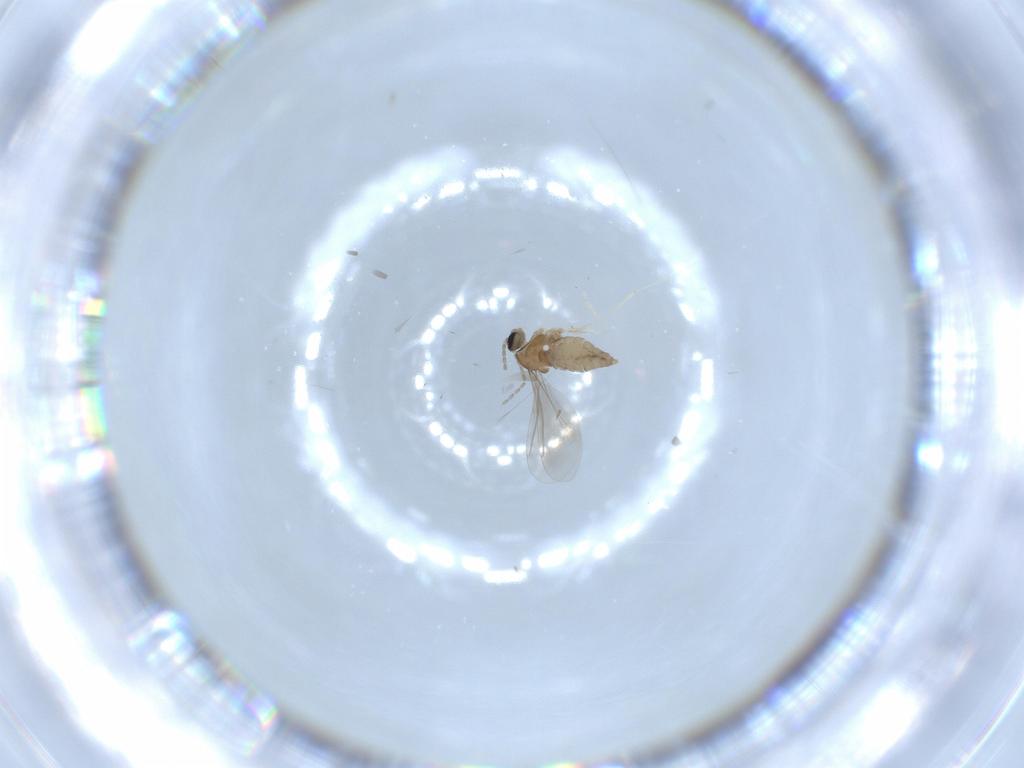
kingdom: Animalia
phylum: Arthropoda
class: Insecta
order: Diptera
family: Cecidomyiidae
